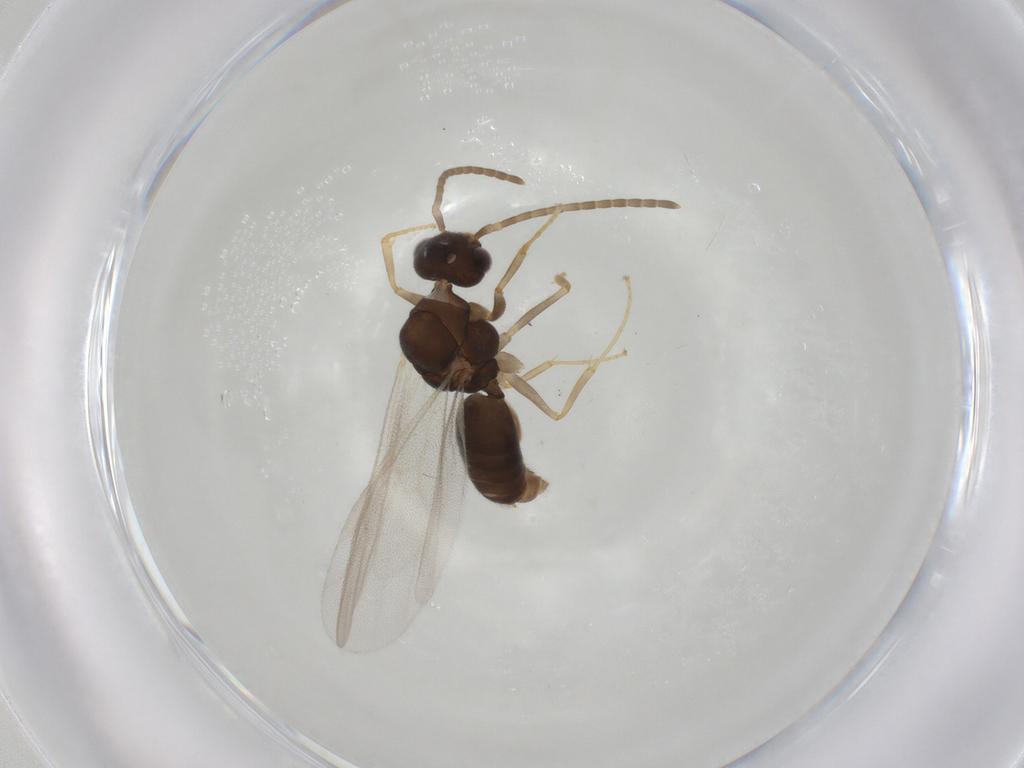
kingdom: Animalia
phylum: Arthropoda
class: Insecta
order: Hymenoptera
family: Formicidae
